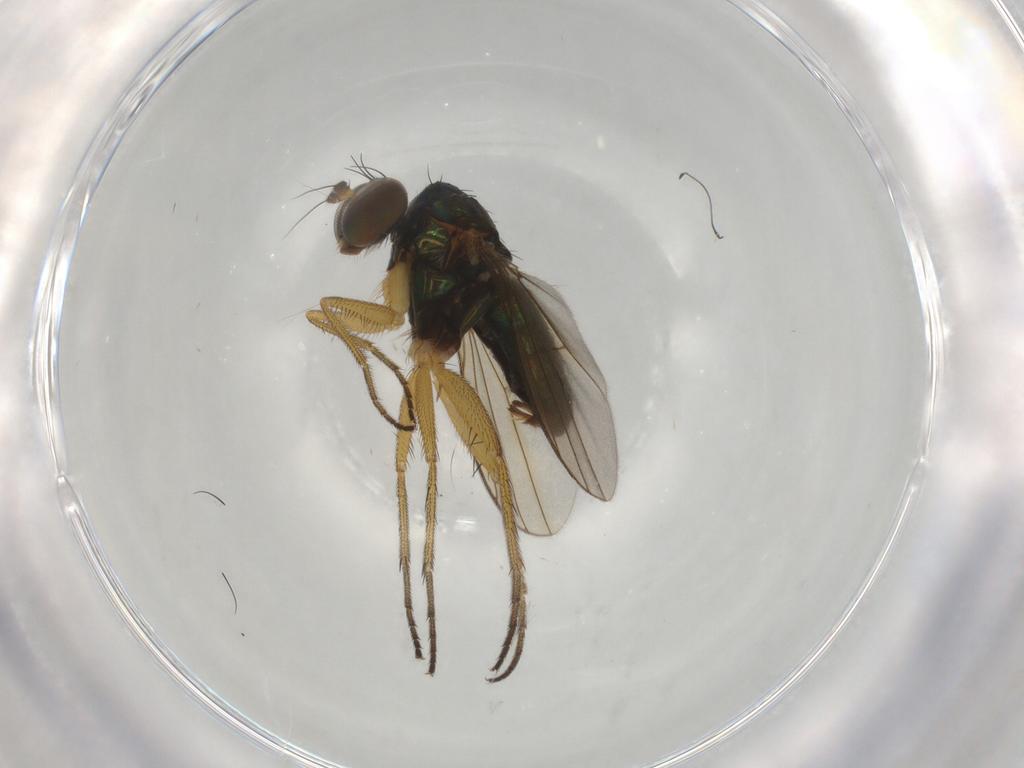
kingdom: Animalia
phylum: Arthropoda
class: Insecta
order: Diptera
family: Dolichopodidae
